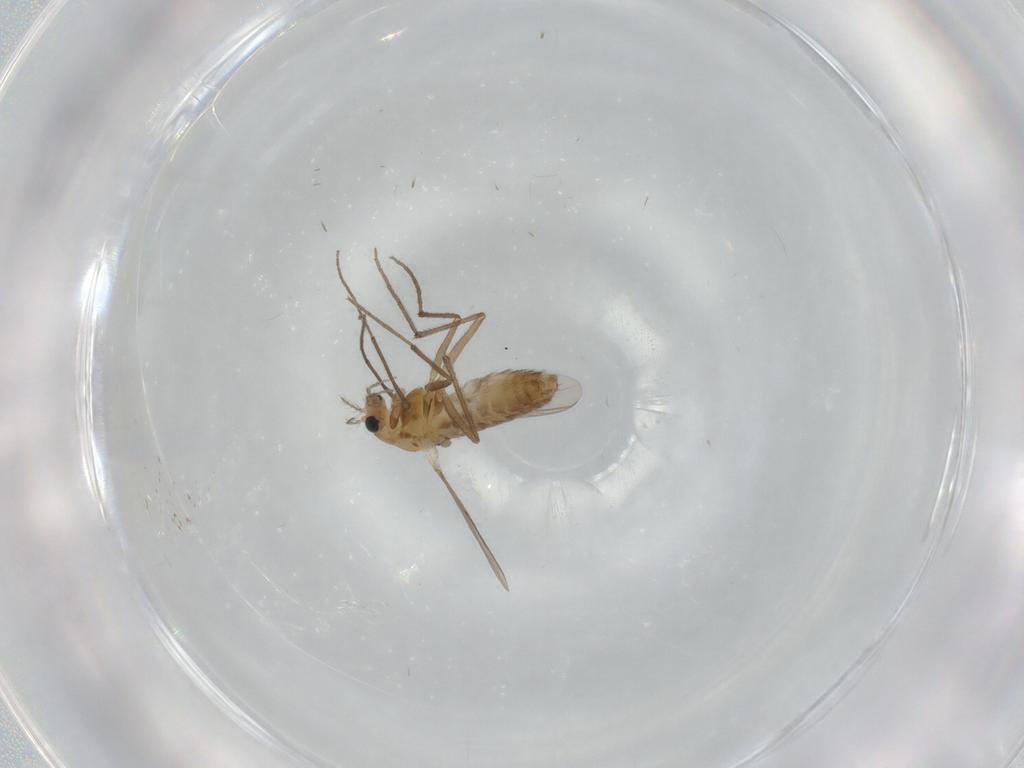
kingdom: Animalia
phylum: Arthropoda
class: Insecta
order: Diptera
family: Chironomidae
